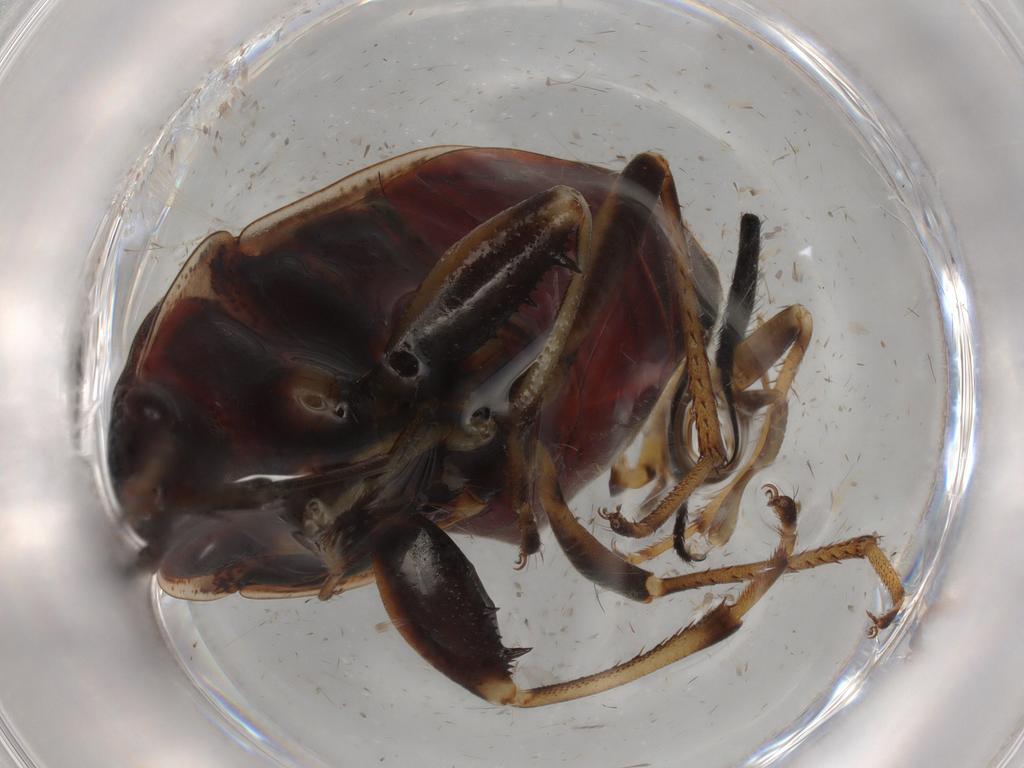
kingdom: Animalia
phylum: Arthropoda
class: Insecta
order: Hemiptera
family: Rhyparochromidae
